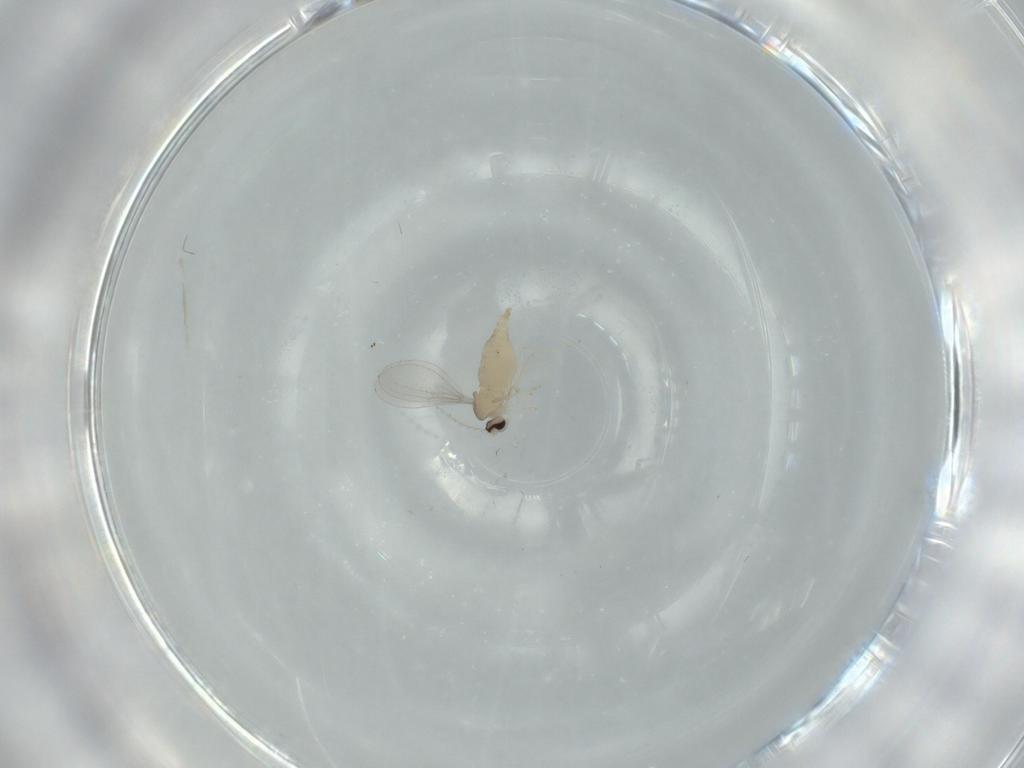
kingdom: Animalia
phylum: Arthropoda
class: Insecta
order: Diptera
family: Cecidomyiidae
